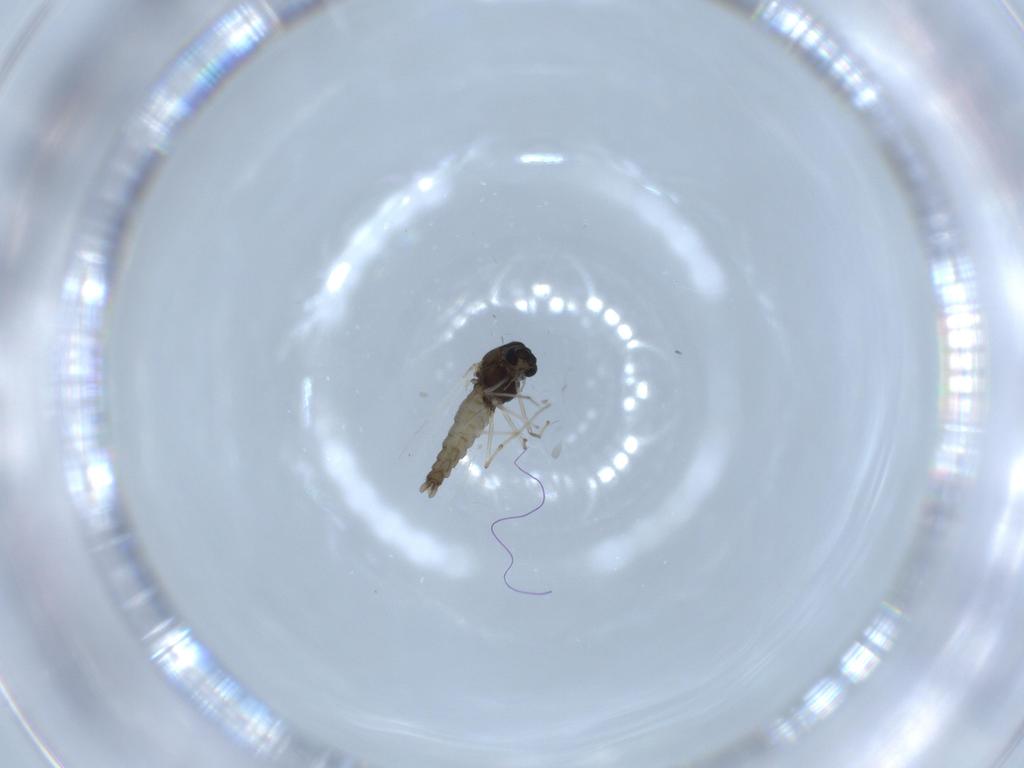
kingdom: Animalia
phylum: Arthropoda
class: Insecta
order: Diptera
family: Chironomidae
